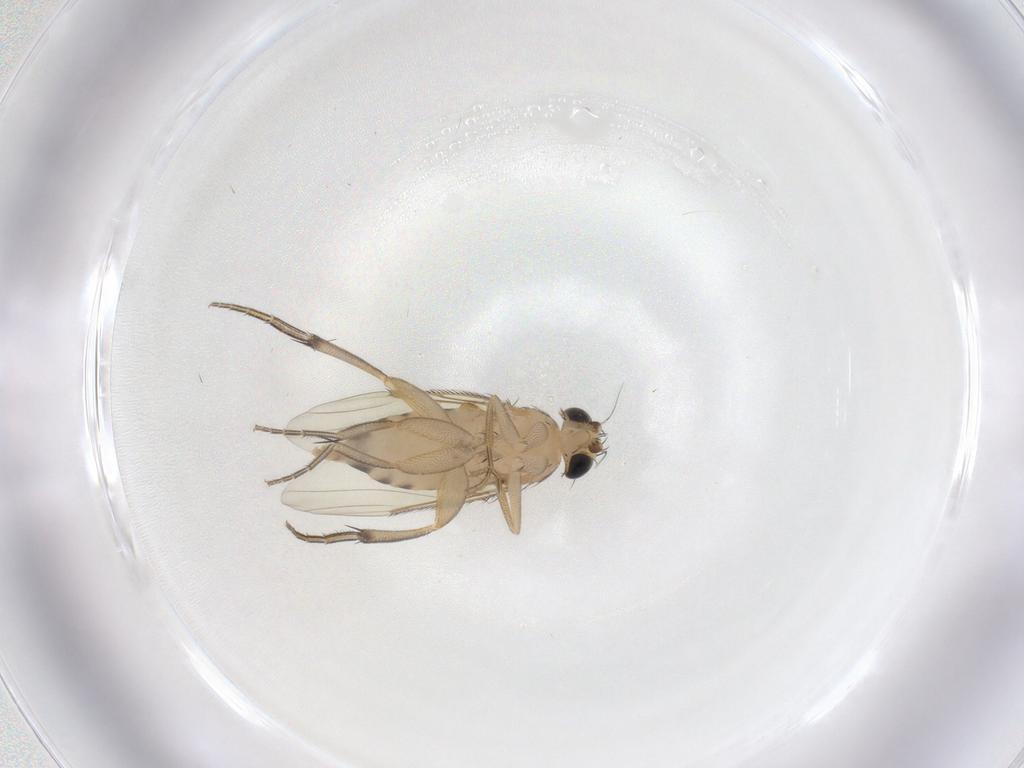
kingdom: Animalia
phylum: Arthropoda
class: Insecta
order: Diptera
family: Phoridae
